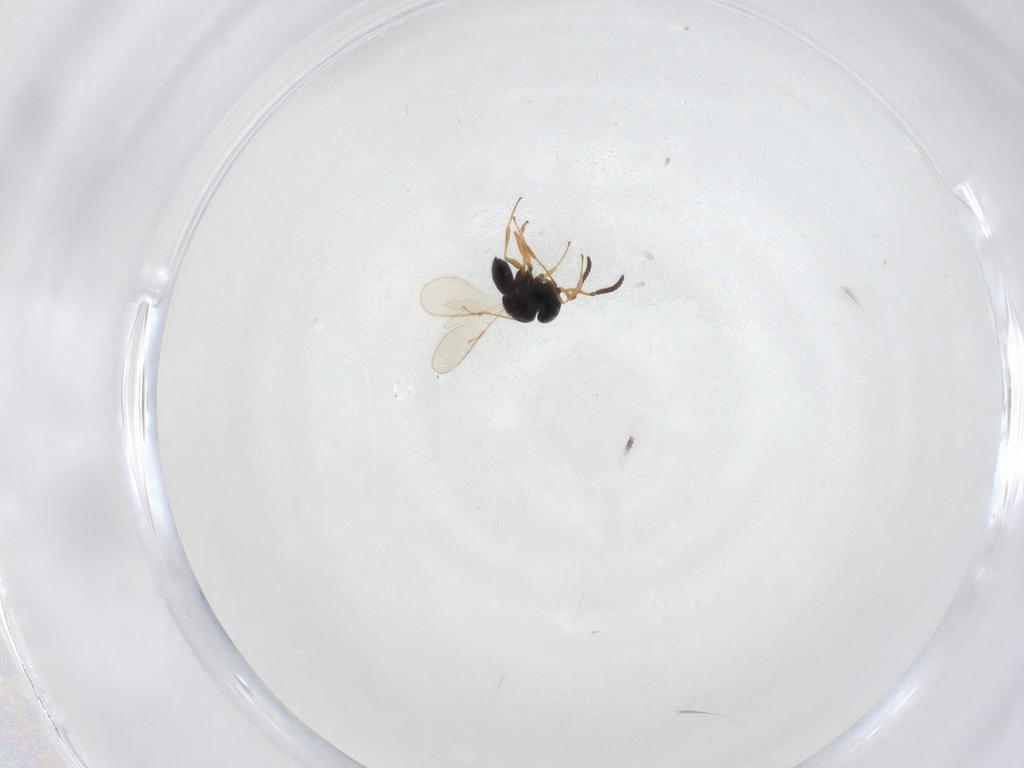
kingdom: Animalia
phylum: Arthropoda
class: Insecta
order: Hymenoptera
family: Scelionidae
